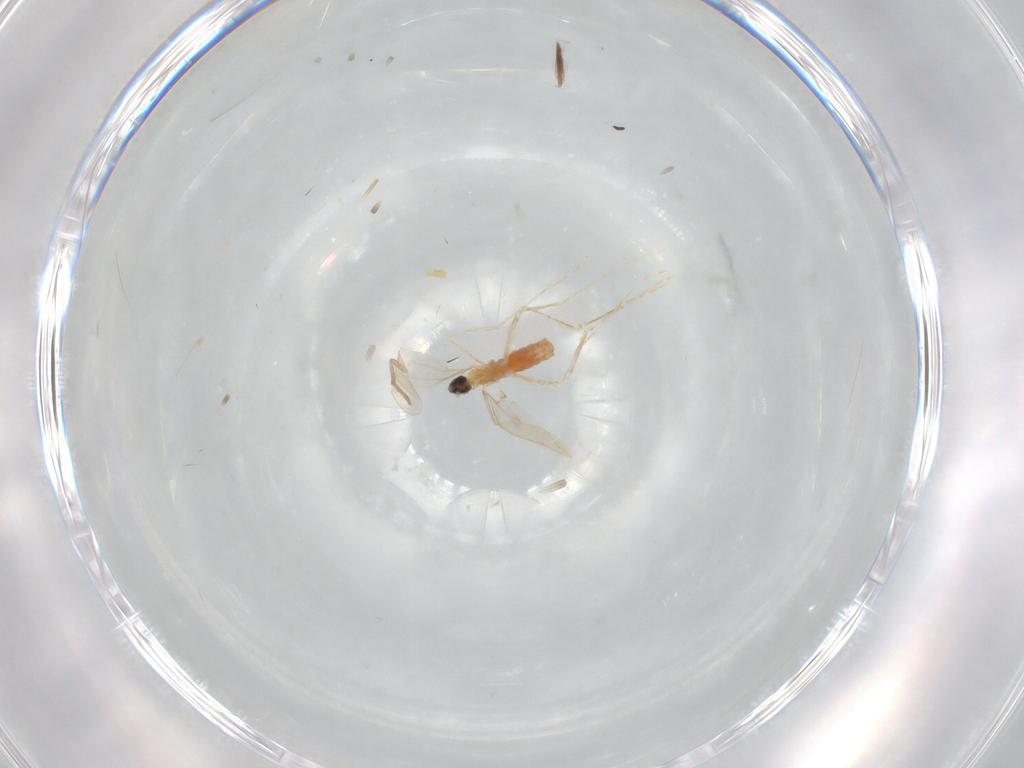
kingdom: Animalia
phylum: Arthropoda
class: Insecta
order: Diptera
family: Cecidomyiidae
